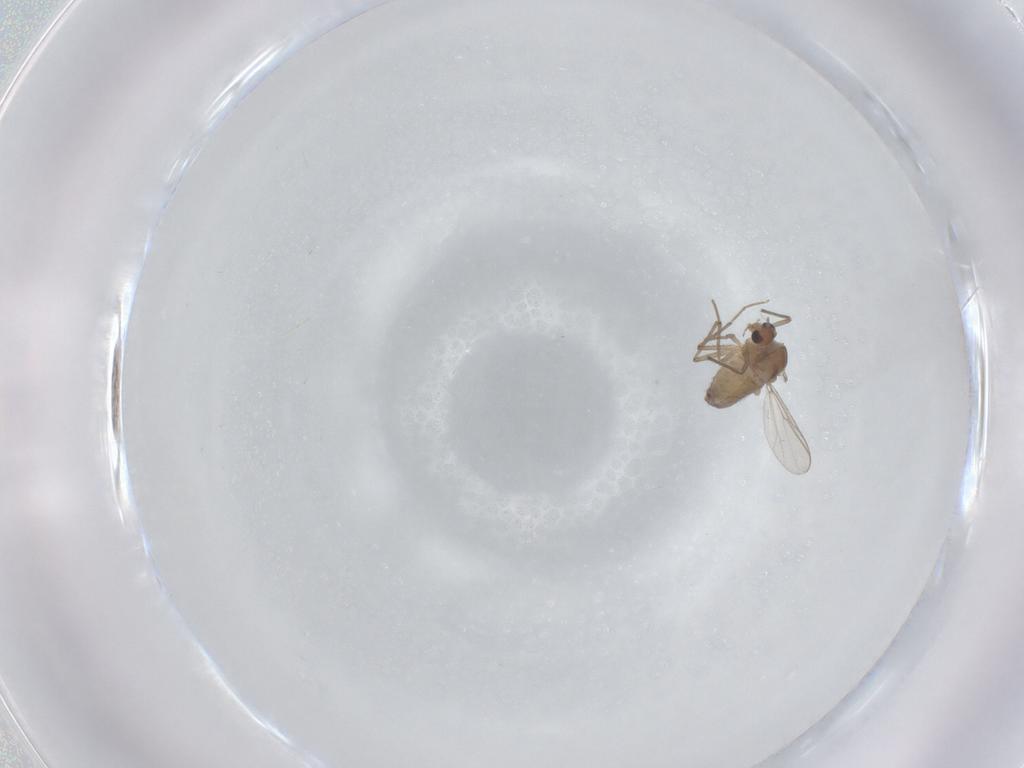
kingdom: Animalia
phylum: Arthropoda
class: Insecta
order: Diptera
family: Chironomidae
